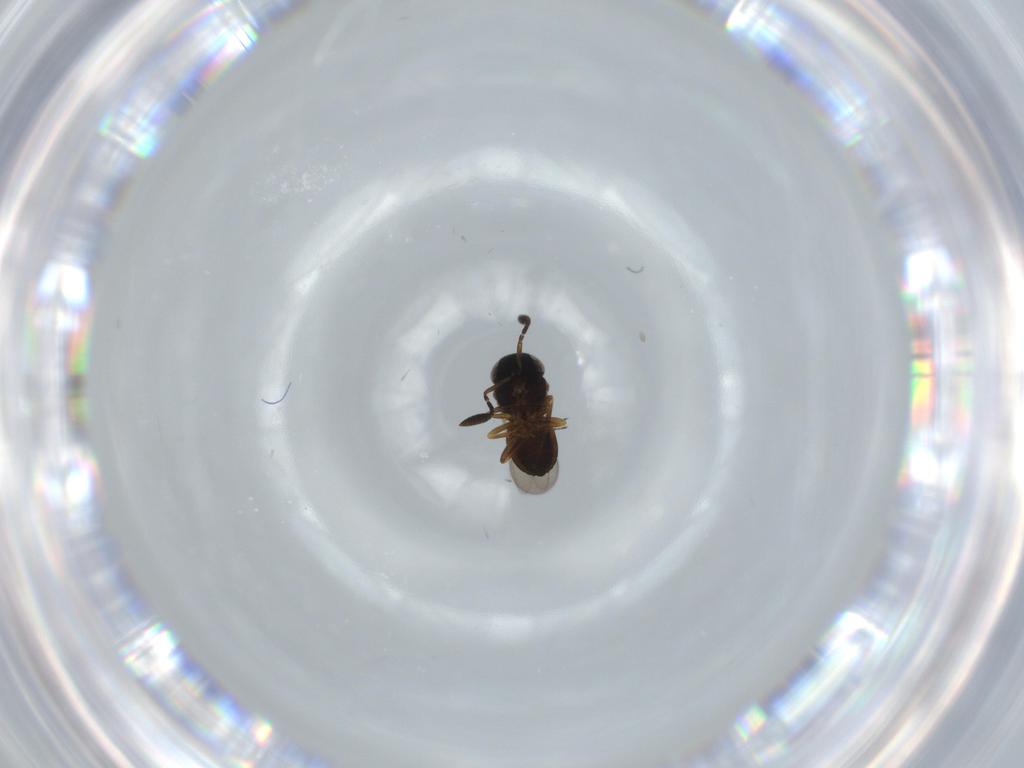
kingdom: Animalia
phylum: Arthropoda
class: Insecta
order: Coleoptera
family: Curculionidae
